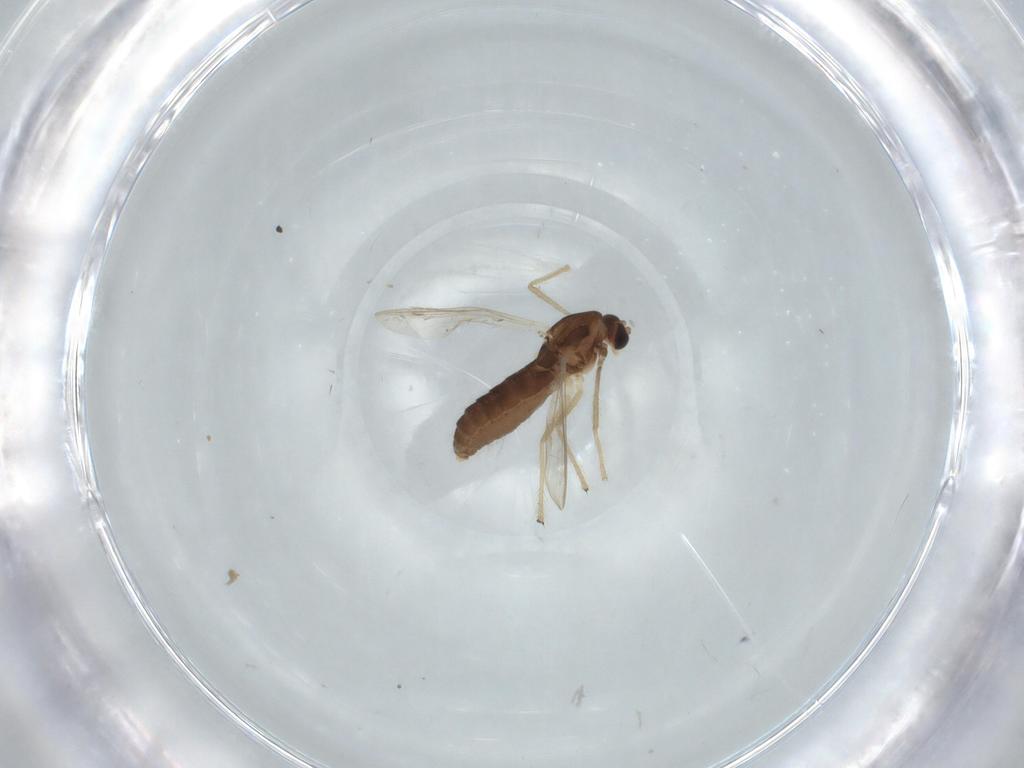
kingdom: Animalia
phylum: Arthropoda
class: Insecta
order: Diptera
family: Chironomidae
